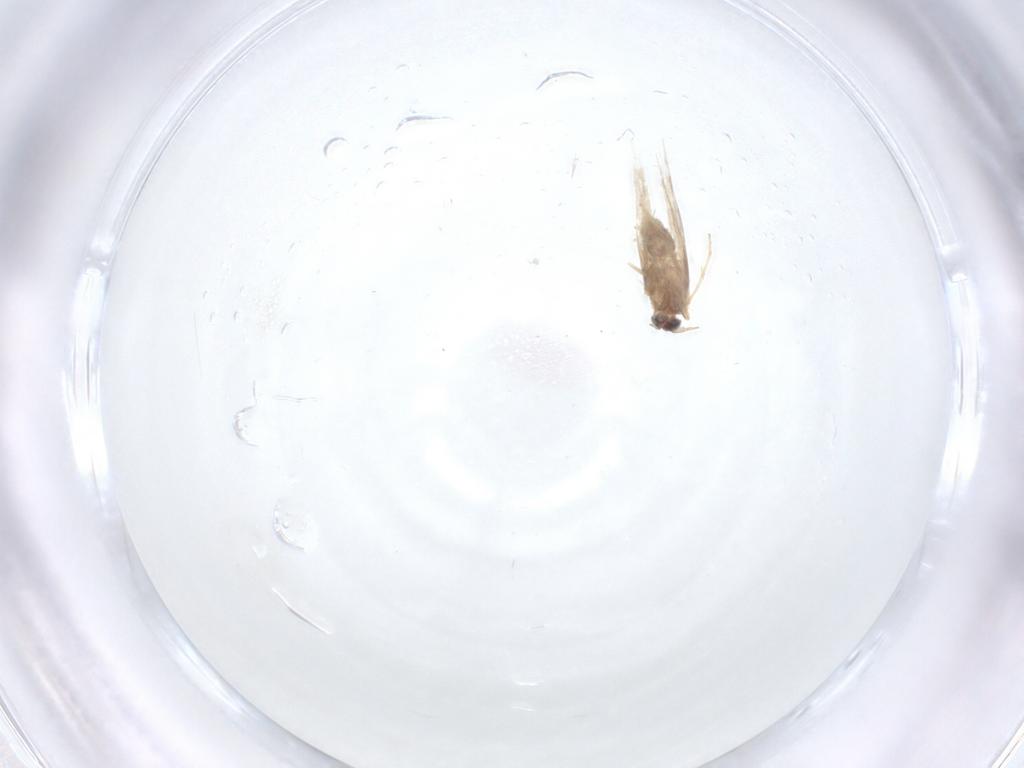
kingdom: Animalia
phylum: Arthropoda
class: Insecta
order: Lepidoptera
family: Nepticulidae
